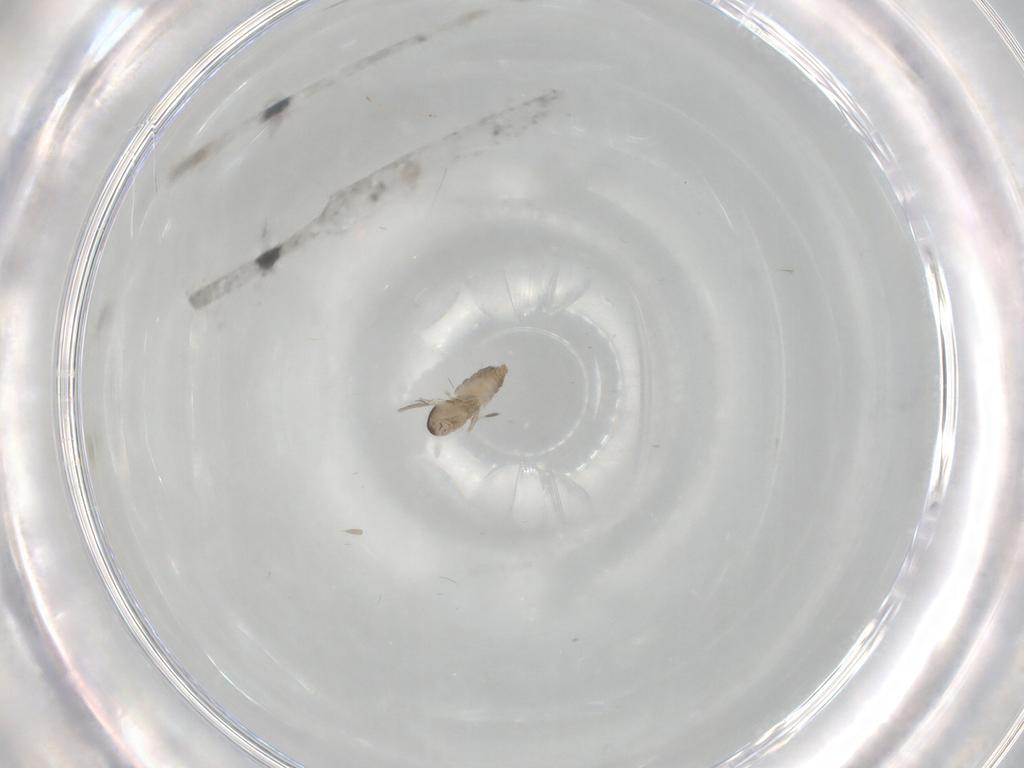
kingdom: Animalia
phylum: Arthropoda
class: Insecta
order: Diptera
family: Cecidomyiidae
